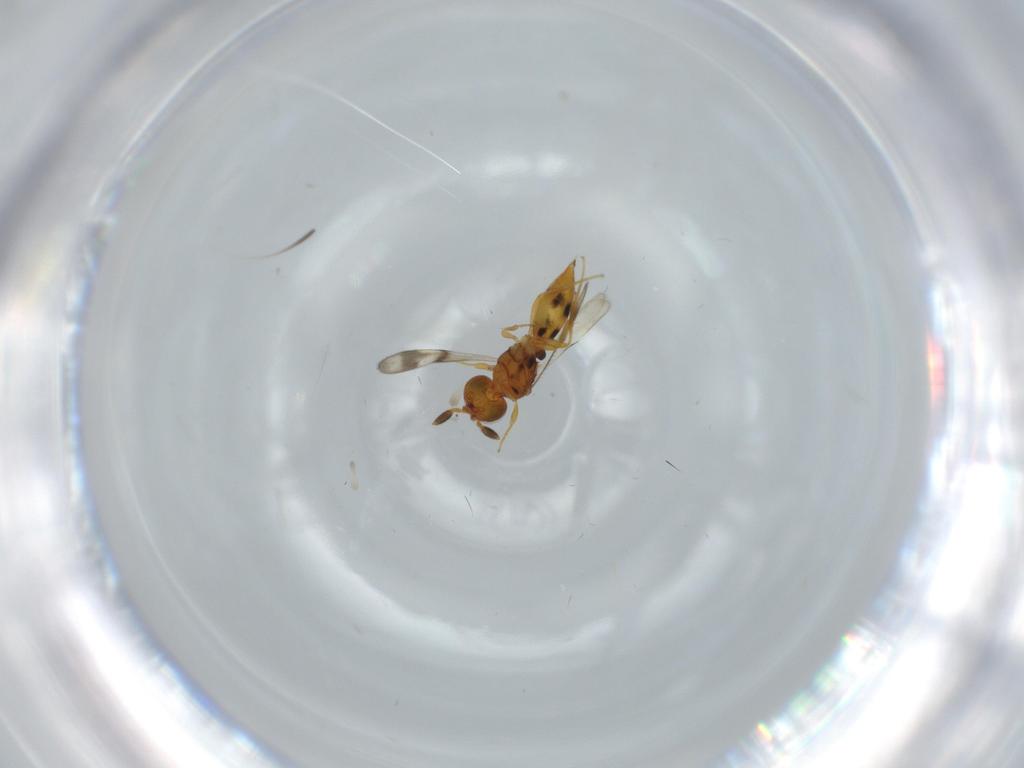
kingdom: Animalia
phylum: Arthropoda
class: Insecta
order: Hymenoptera
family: Scelionidae
